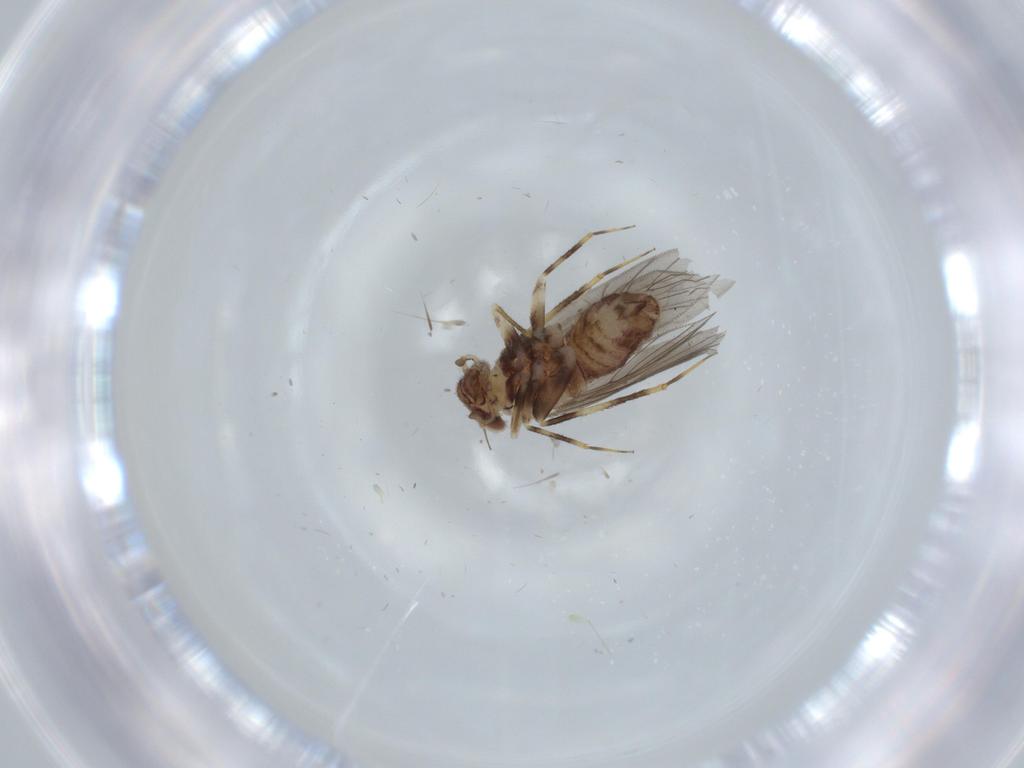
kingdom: Animalia
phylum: Arthropoda
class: Insecta
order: Psocodea
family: Lepidopsocidae
